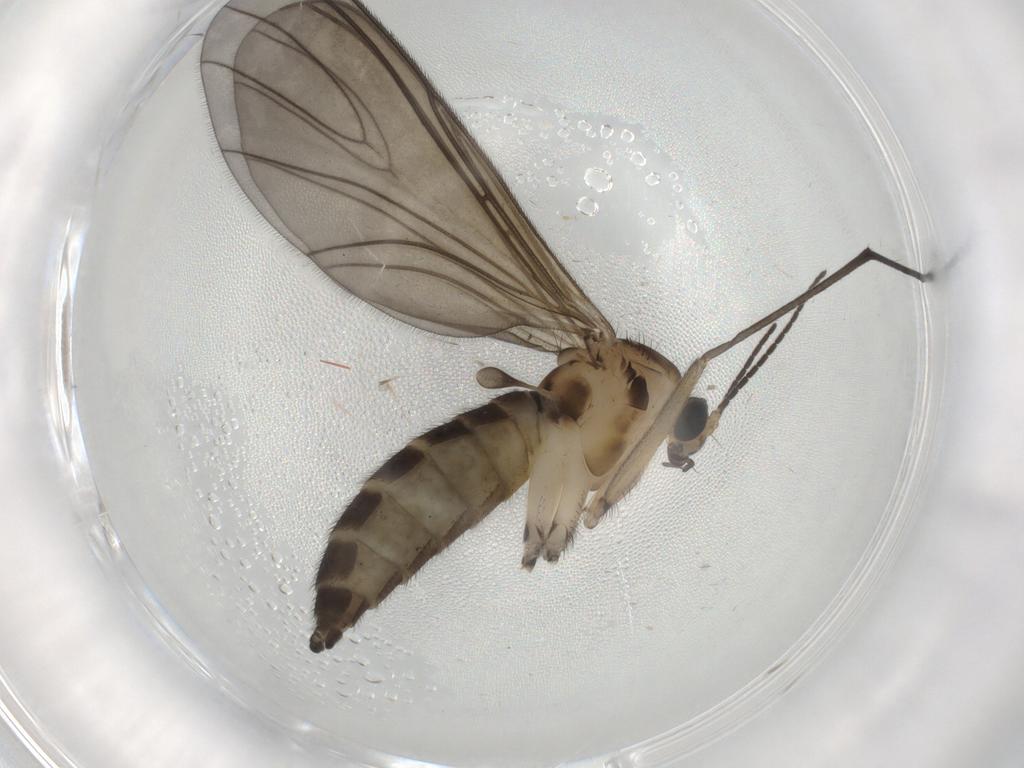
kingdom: Animalia
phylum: Arthropoda
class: Insecta
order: Diptera
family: Sciaridae
